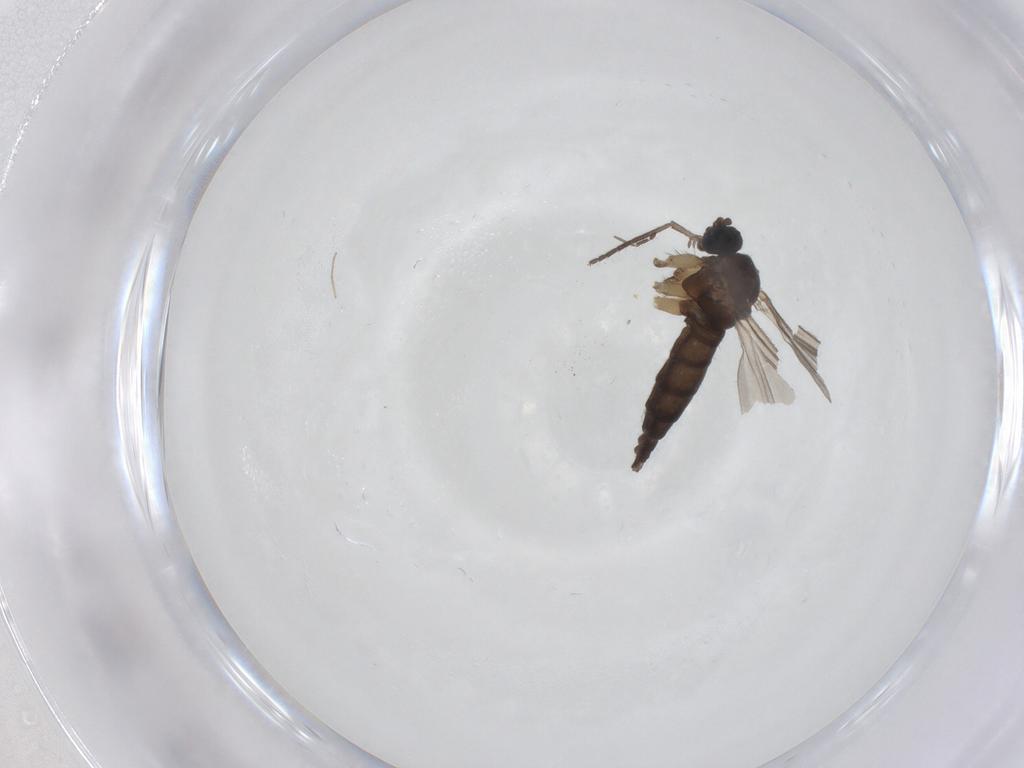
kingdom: Animalia
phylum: Arthropoda
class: Insecta
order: Diptera
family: Sciaridae
